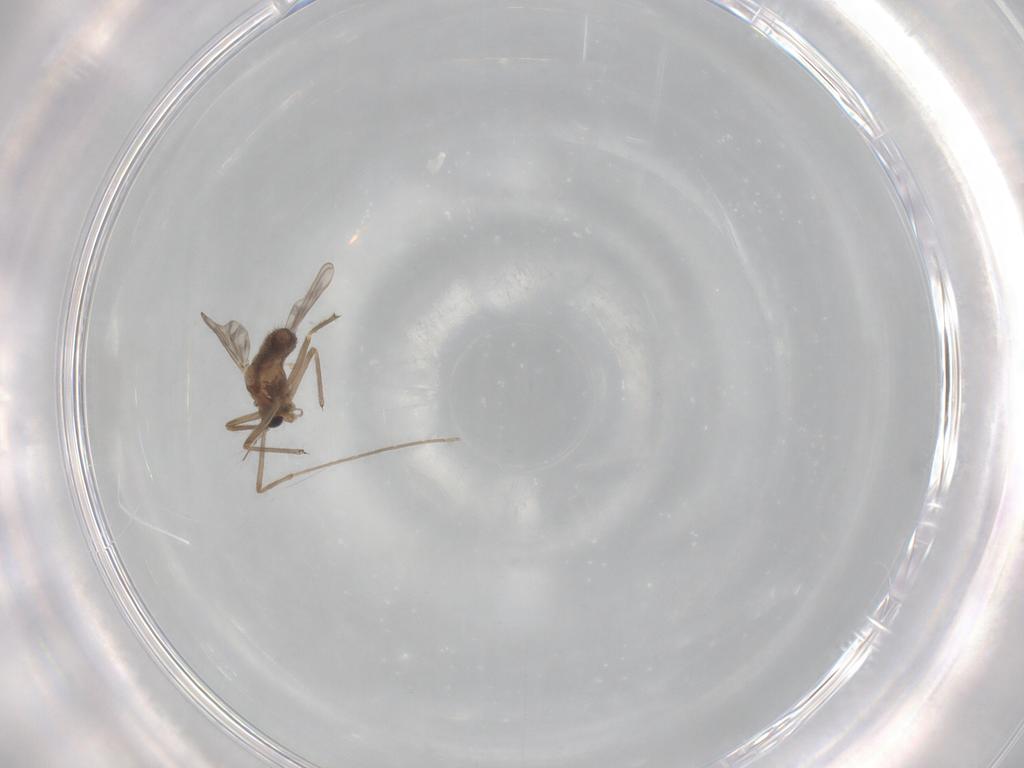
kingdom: Animalia
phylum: Arthropoda
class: Insecta
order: Diptera
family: Chironomidae
